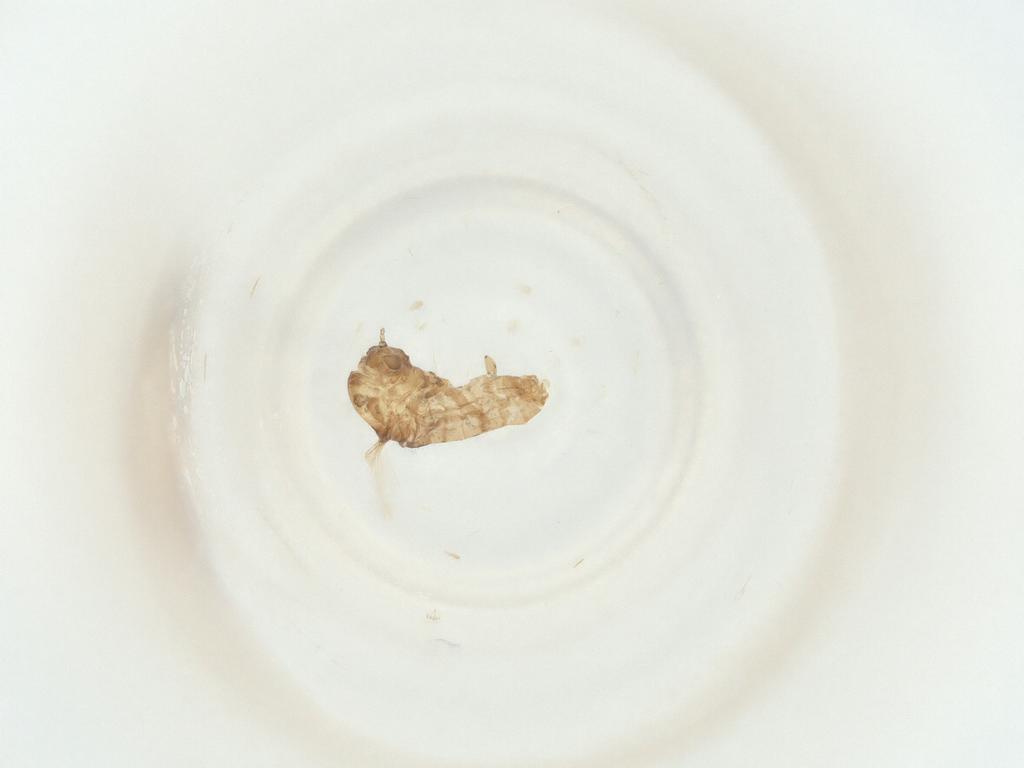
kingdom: Animalia
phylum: Arthropoda
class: Insecta
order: Diptera
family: Chironomidae
